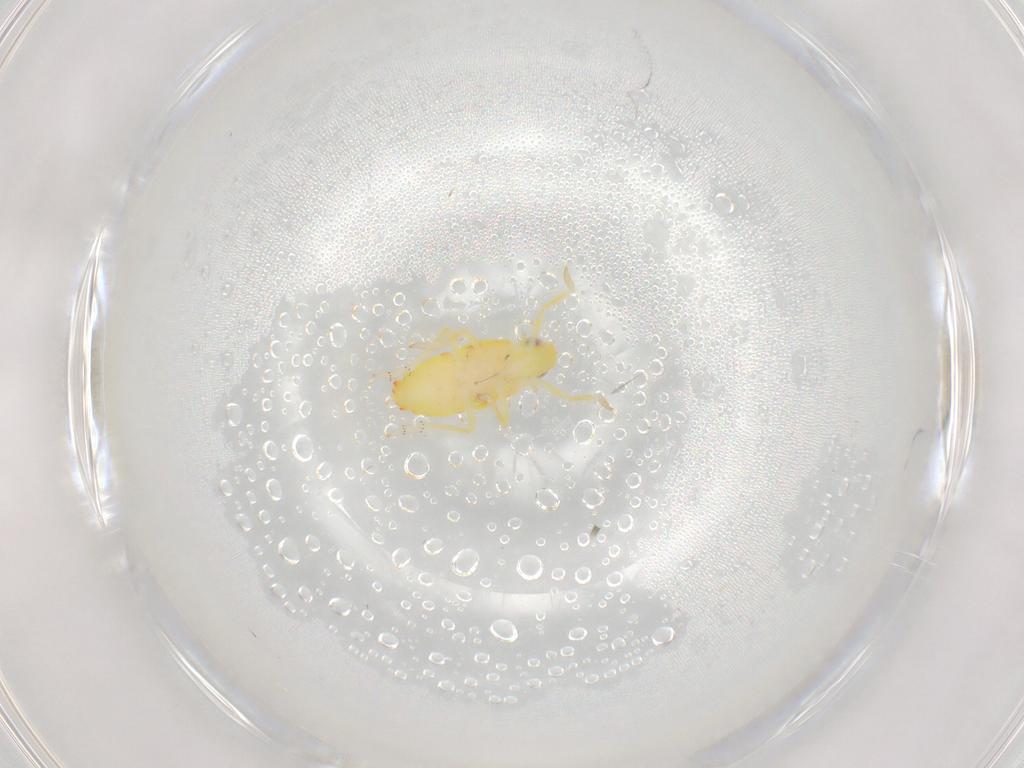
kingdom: Animalia
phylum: Arthropoda
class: Insecta
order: Hemiptera
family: Tropiduchidae
